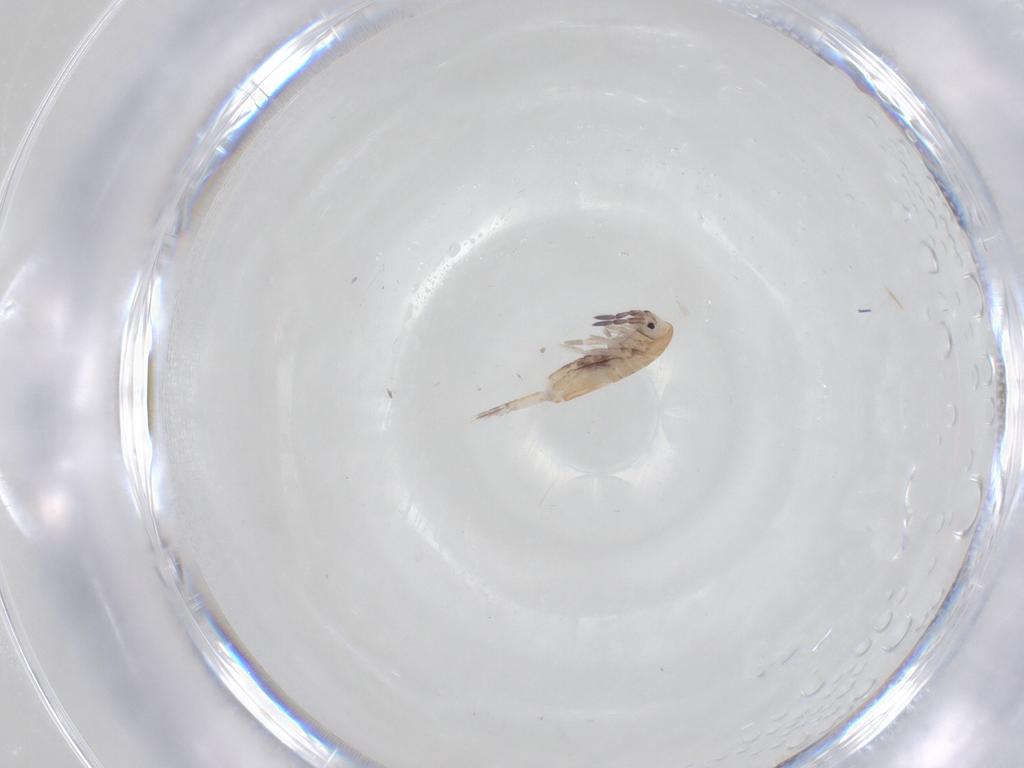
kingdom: Animalia
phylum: Arthropoda
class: Collembola
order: Entomobryomorpha
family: Entomobryidae
